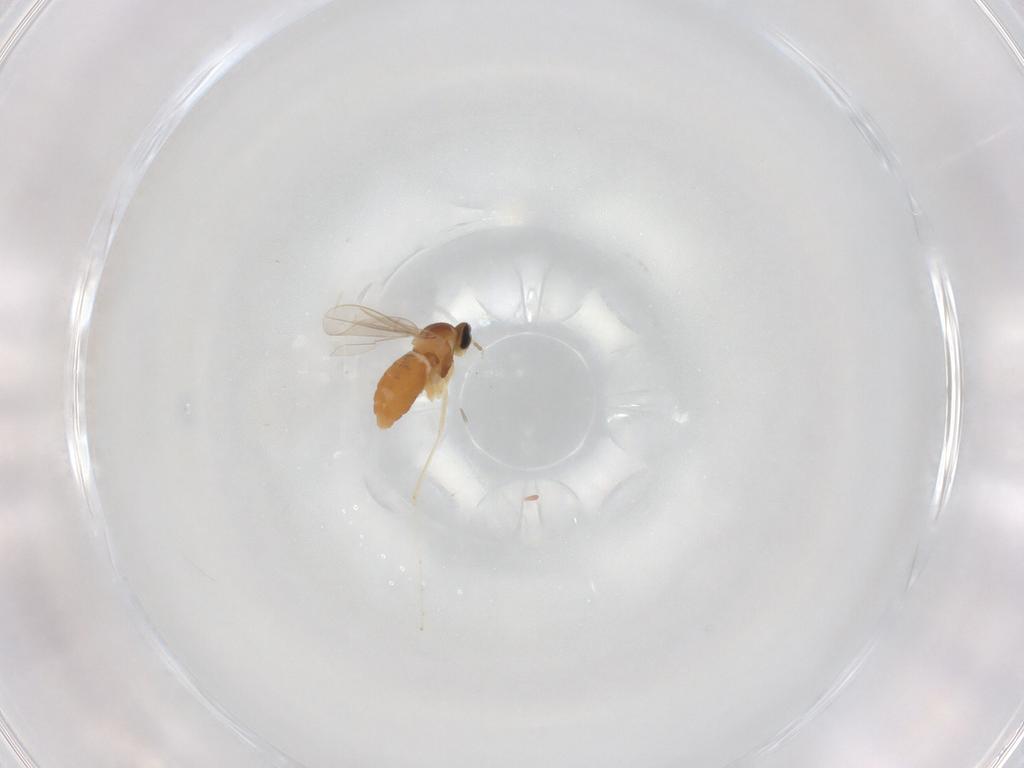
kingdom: Animalia
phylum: Arthropoda
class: Insecta
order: Diptera
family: Cecidomyiidae
